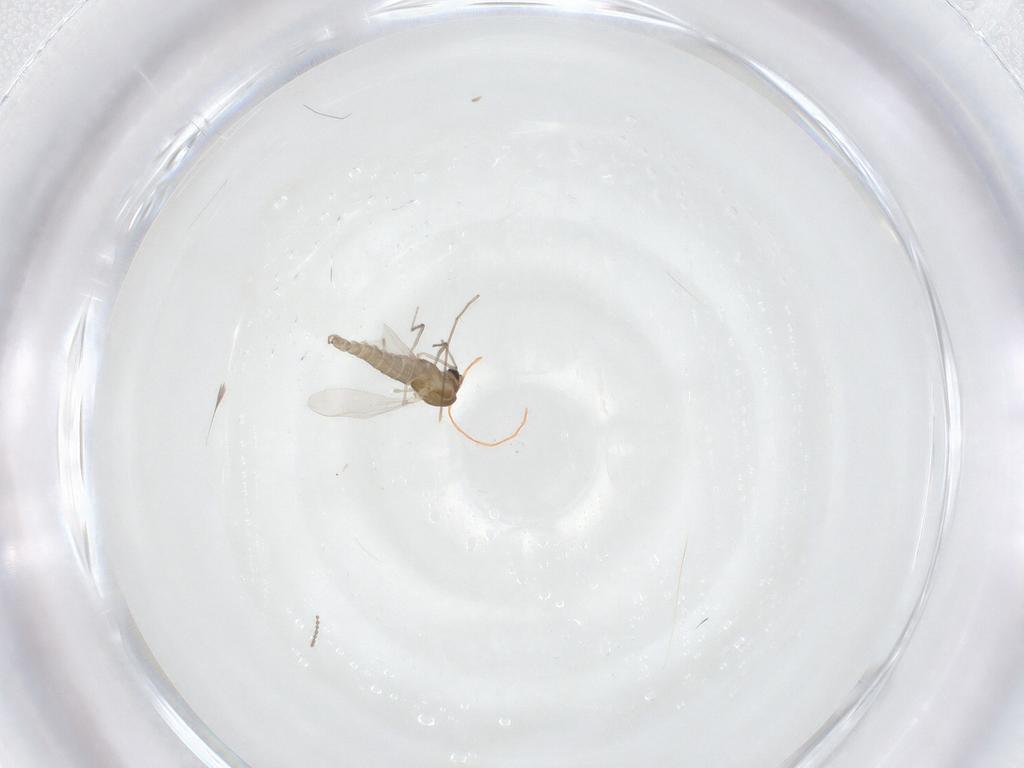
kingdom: Animalia
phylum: Arthropoda
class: Insecta
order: Diptera
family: Chironomidae
